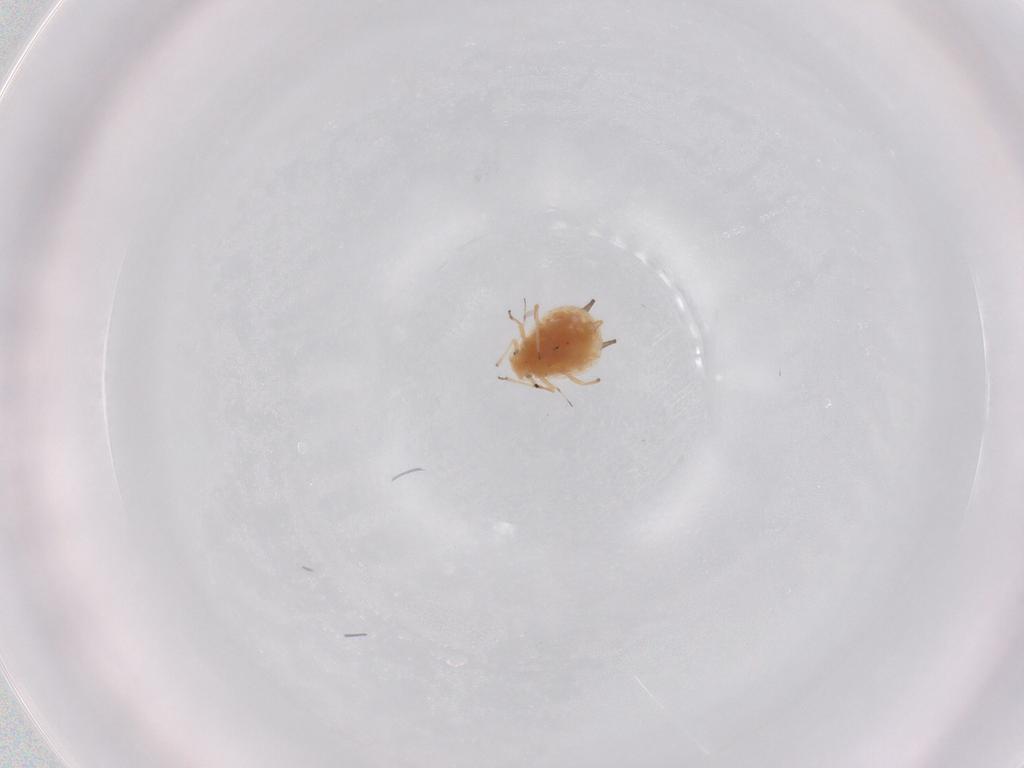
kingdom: Animalia
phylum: Arthropoda
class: Insecta
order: Hemiptera
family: Aphididae
